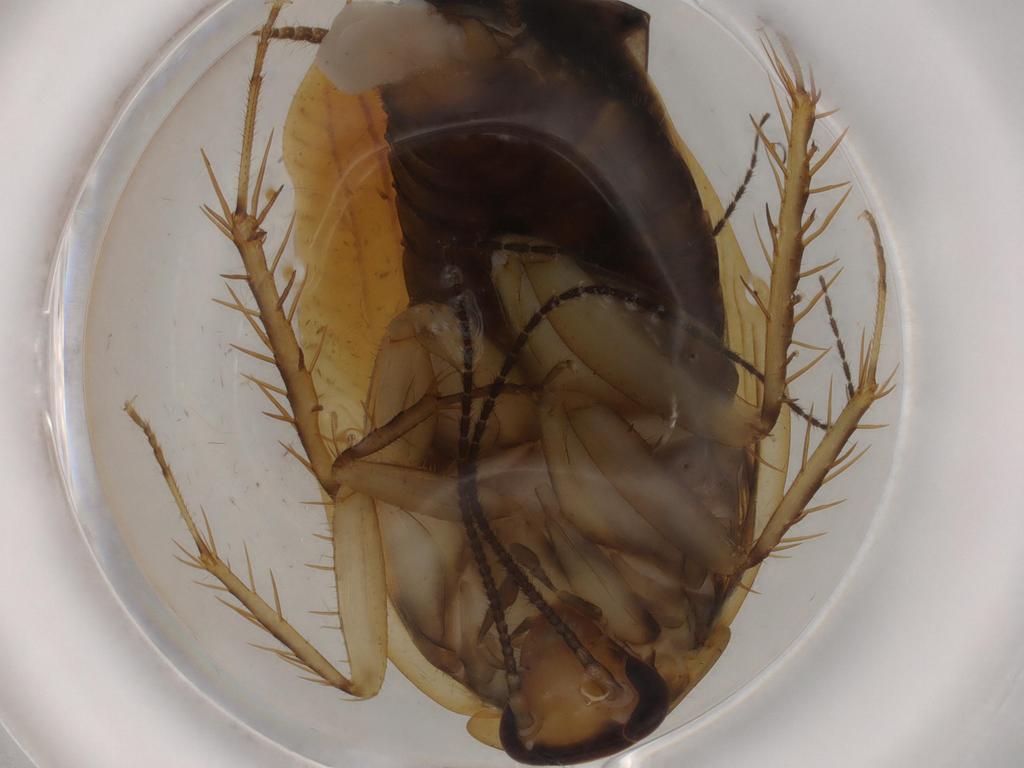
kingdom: Animalia
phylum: Arthropoda
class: Insecta
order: Blattodea
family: Ectobiidae
